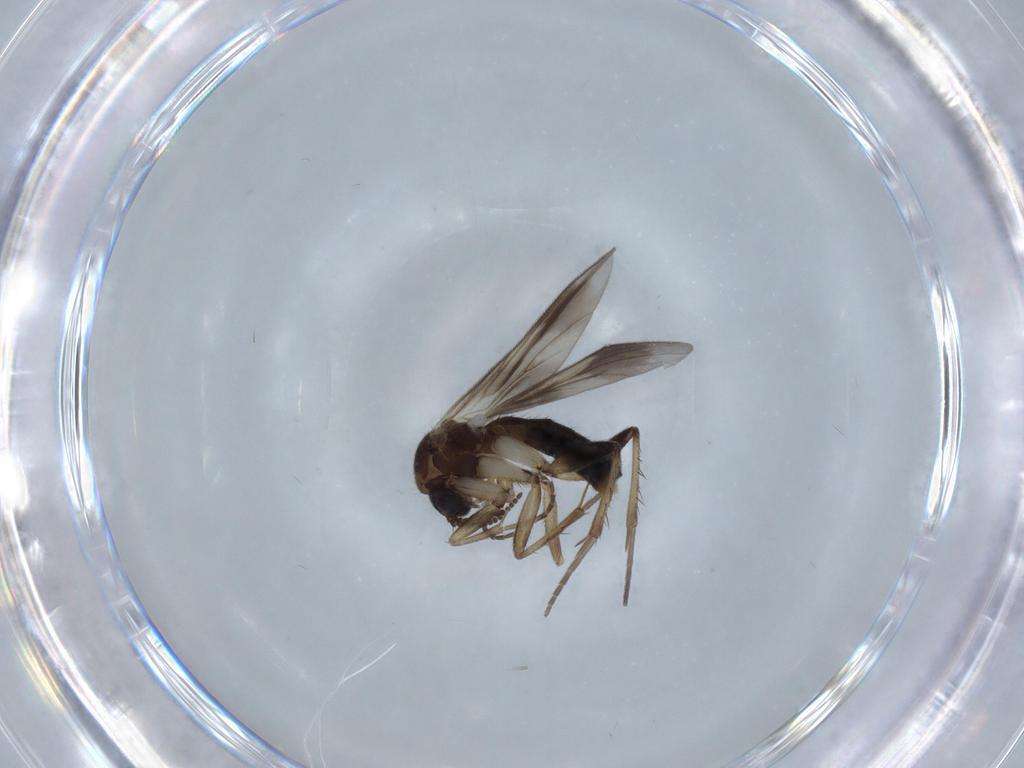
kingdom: Animalia
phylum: Arthropoda
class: Insecta
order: Diptera
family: Mycetophilidae
